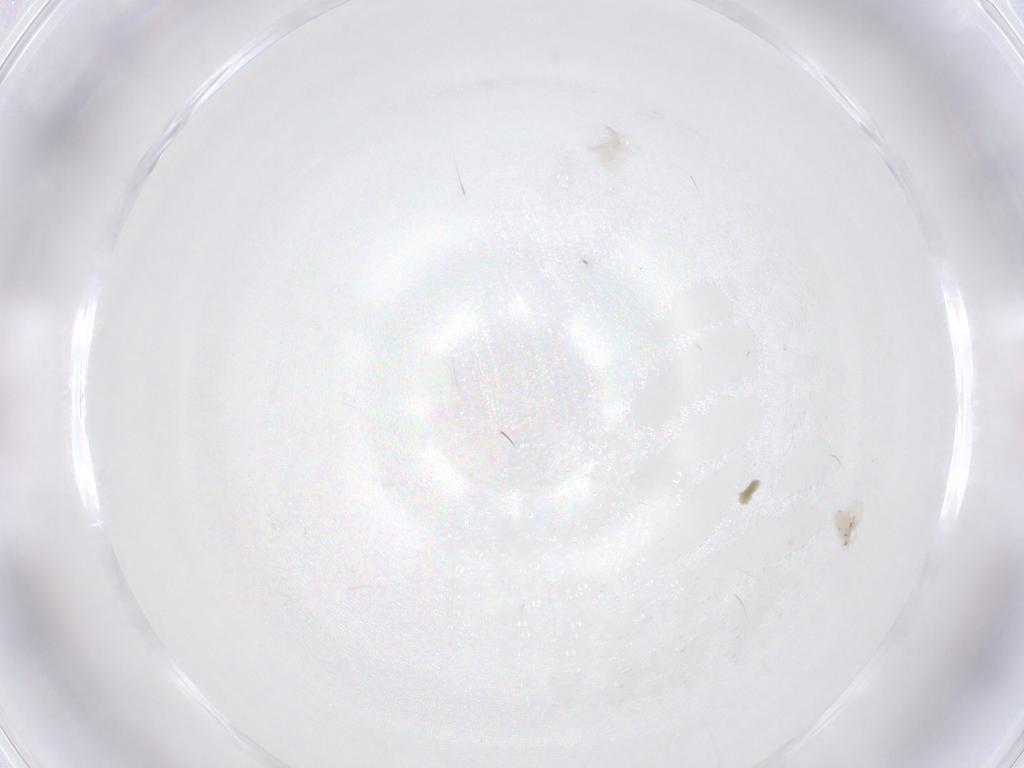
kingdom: Animalia
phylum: Arthropoda
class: Arachnida
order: Trombidiformes
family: Anystidae
